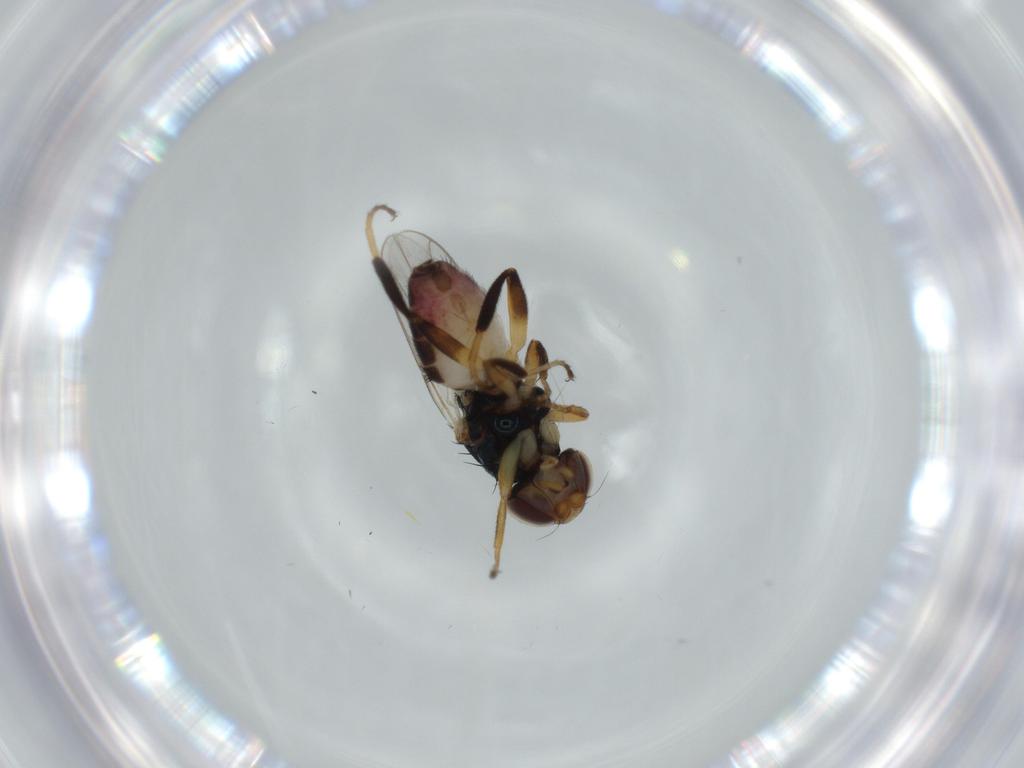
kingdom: Animalia
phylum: Arthropoda
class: Insecta
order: Diptera
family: Chloropidae
